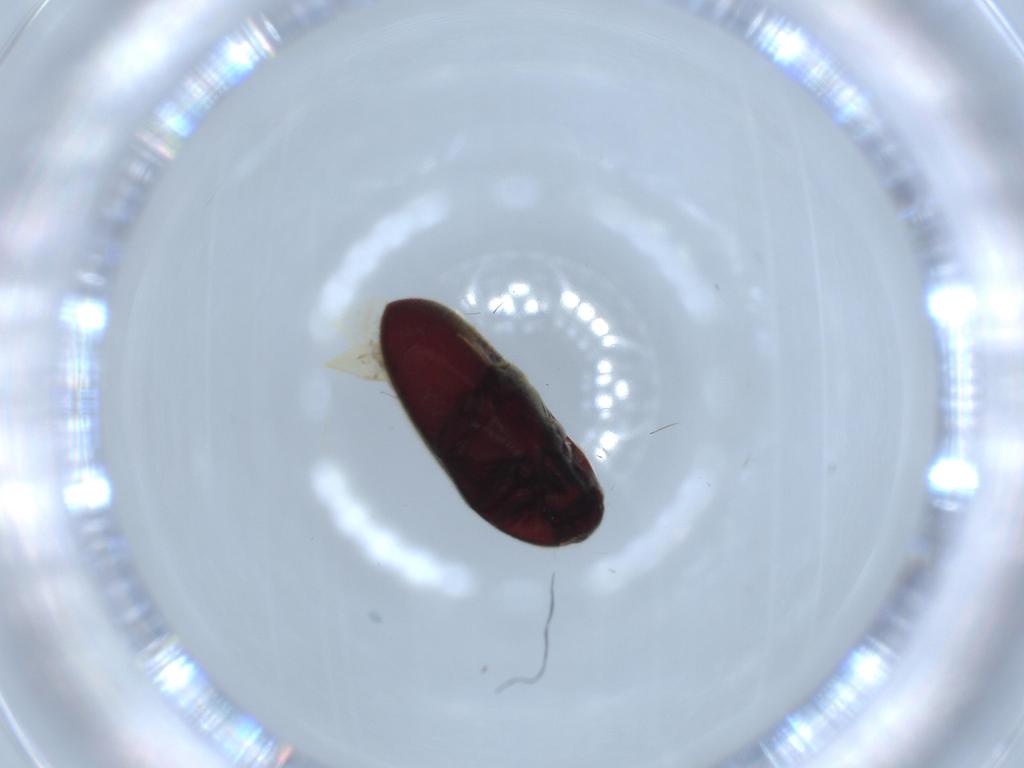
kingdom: Animalia
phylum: Arthropoda
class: Insecta
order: Coleoptera
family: Throscidae
